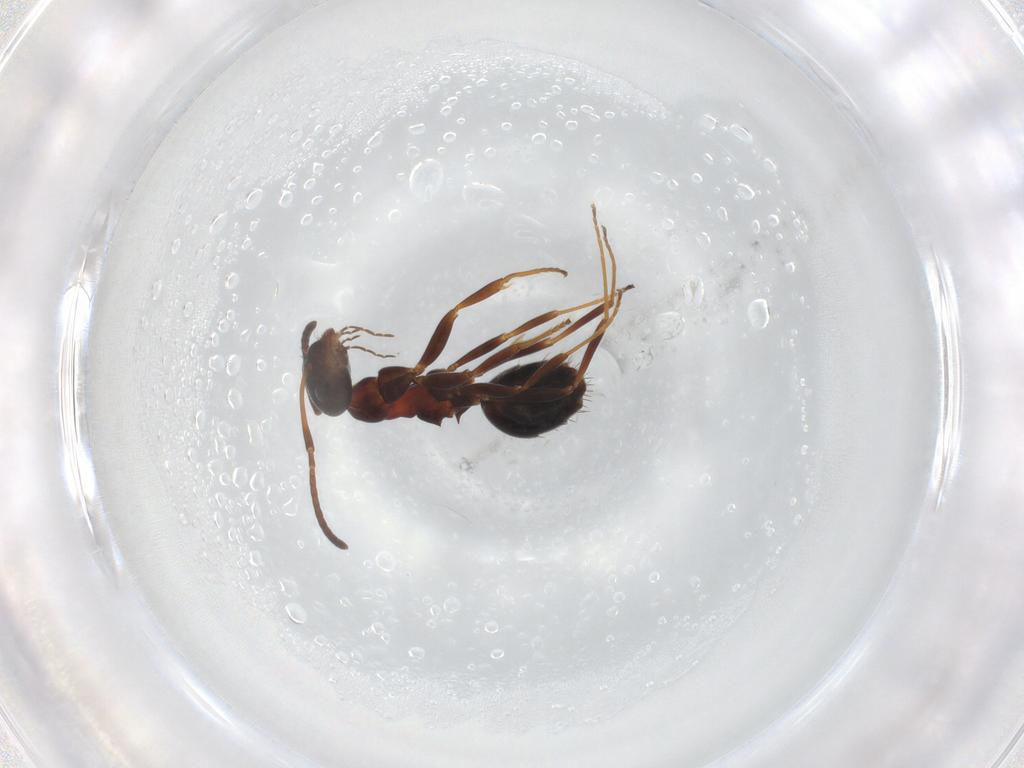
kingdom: Animalia
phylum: Arthropoda
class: Insecta
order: Hymenoptera
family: Formicidae
